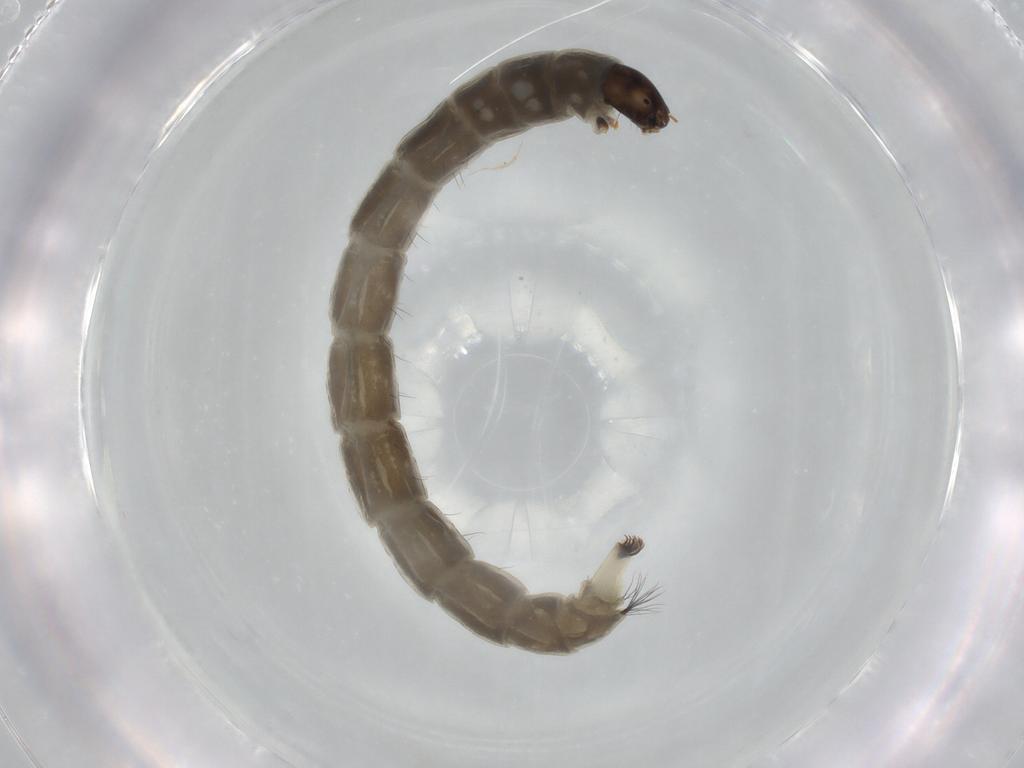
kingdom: Animalia
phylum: Arthropoda
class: Insecta
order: Diptera
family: Chironomidae
